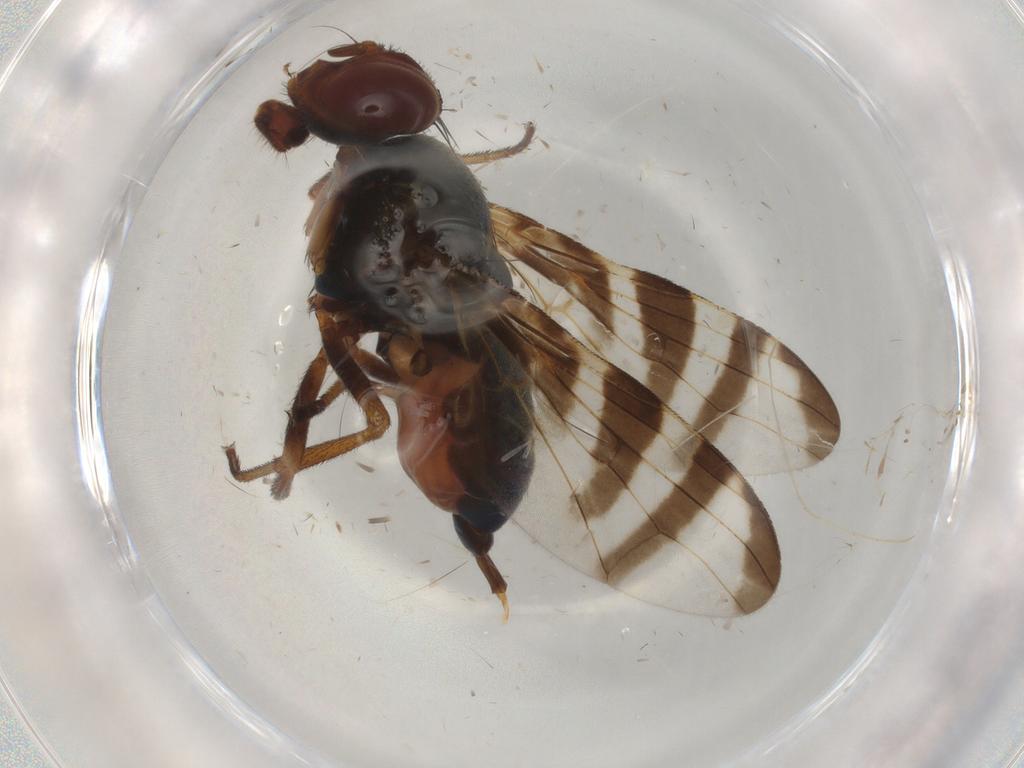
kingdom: Animalia
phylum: Arthropoda
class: Insecta
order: Diptera
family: Platystomatidae
